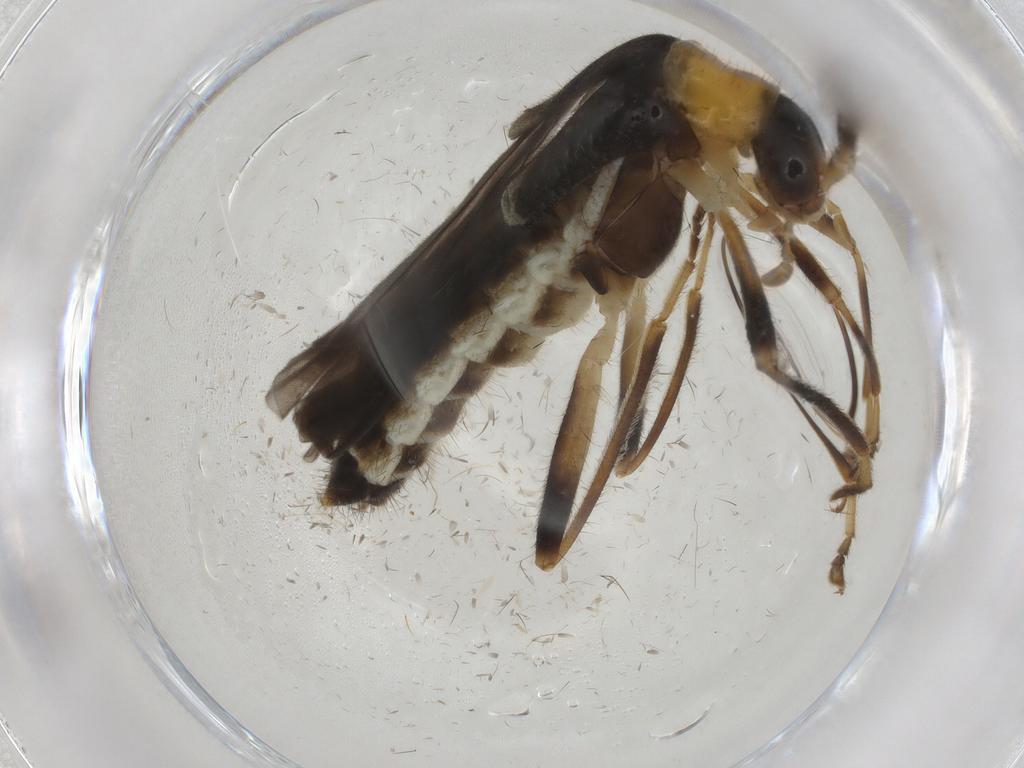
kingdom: Animalia
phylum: Arthropoda
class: Insecta
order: Coleoptera
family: Cantharidae
